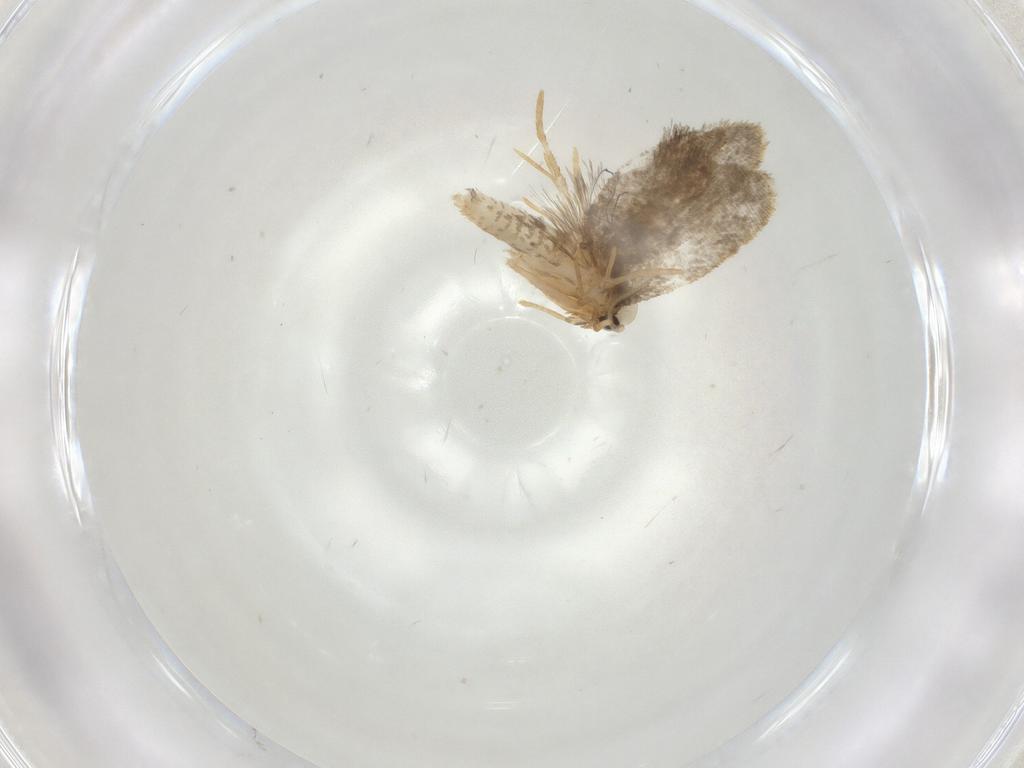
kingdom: Animalia
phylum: Arthropoda
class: Insecta
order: Lepidoptera
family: Psychidae
